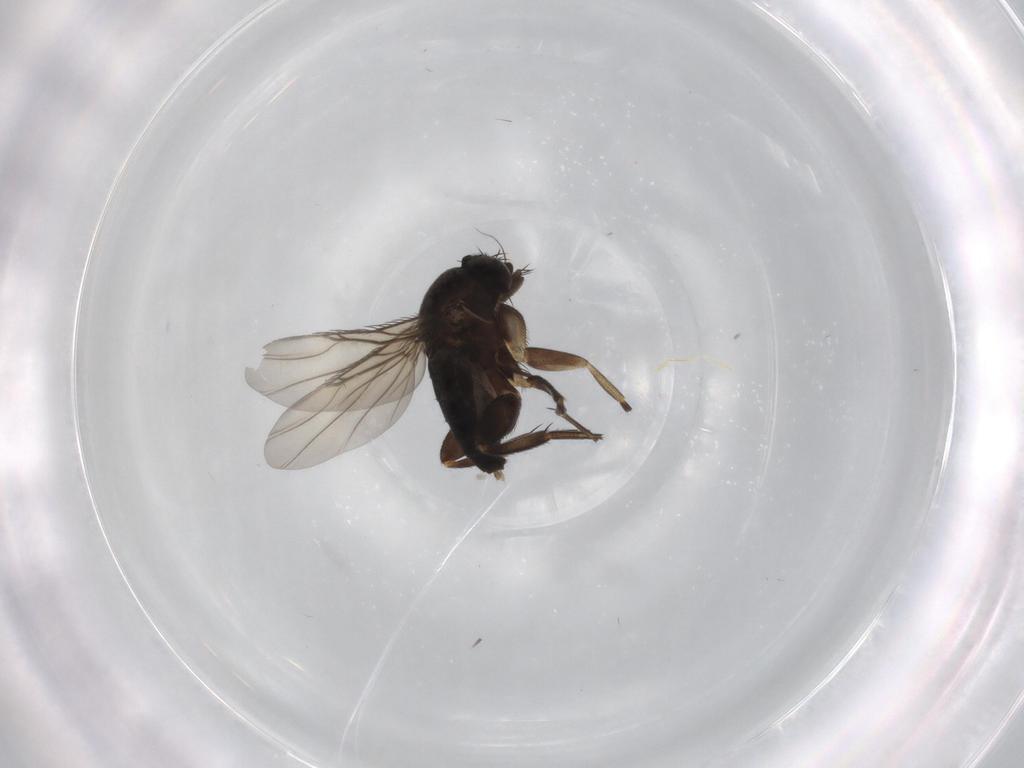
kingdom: Animalia
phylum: Arthropoda
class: Insecta
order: Diptera
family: Phoridae
